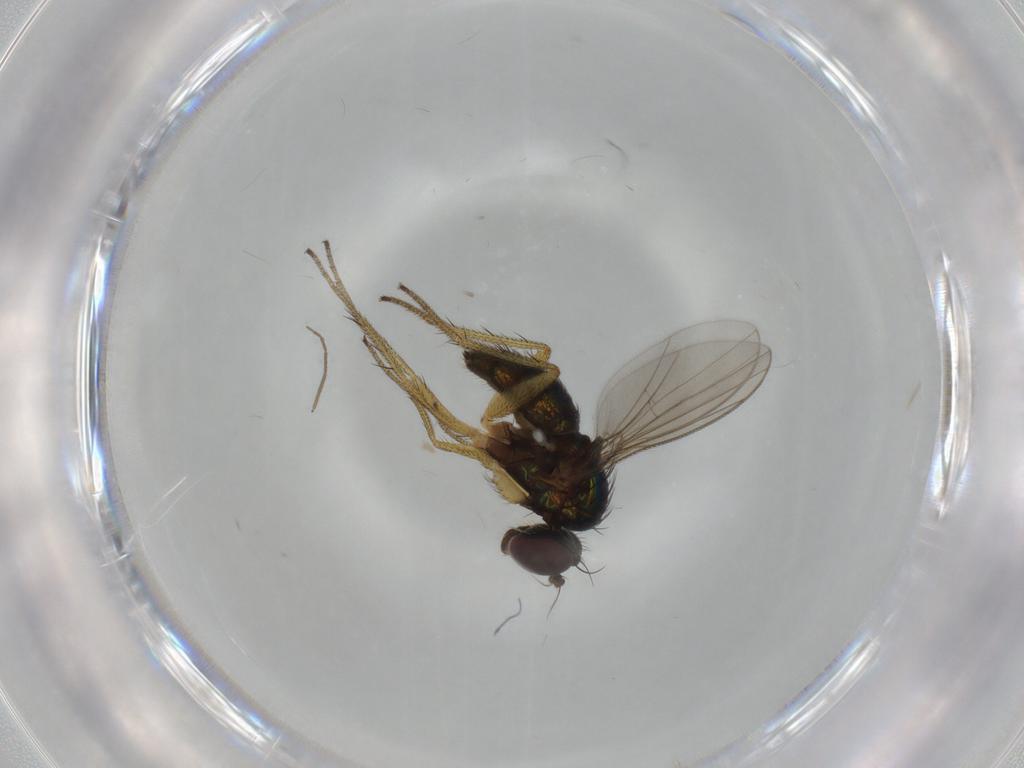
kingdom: Animalia
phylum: Arthropoda
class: Insecta
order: Diptera
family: Dolichopodidae
